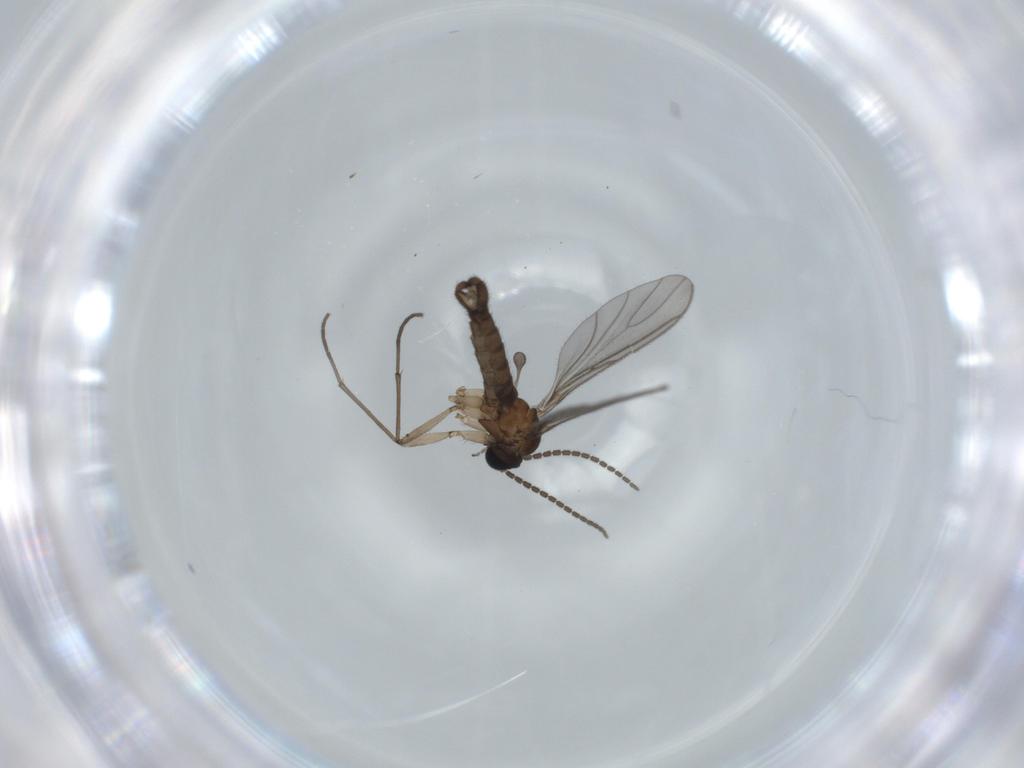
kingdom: Animalia
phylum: Arthropoda
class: Insecta
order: Diptera
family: Sciaridae
